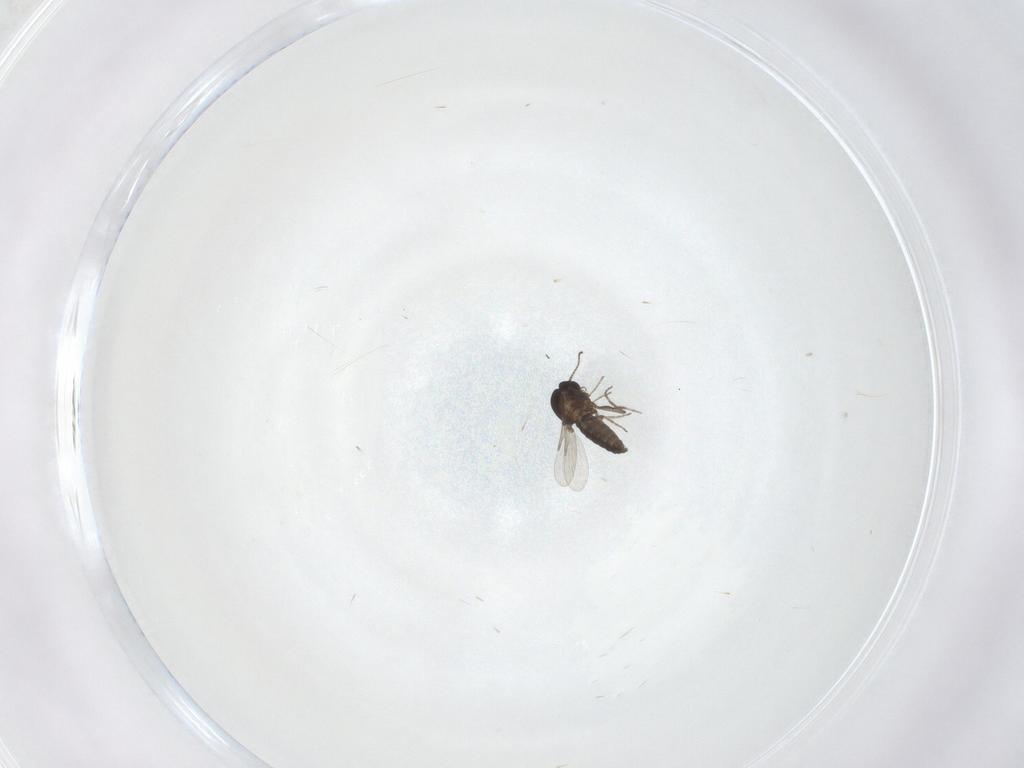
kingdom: Animalia
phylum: Arthropoda
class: Insecta
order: Diptera
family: Ceratopogonidae
